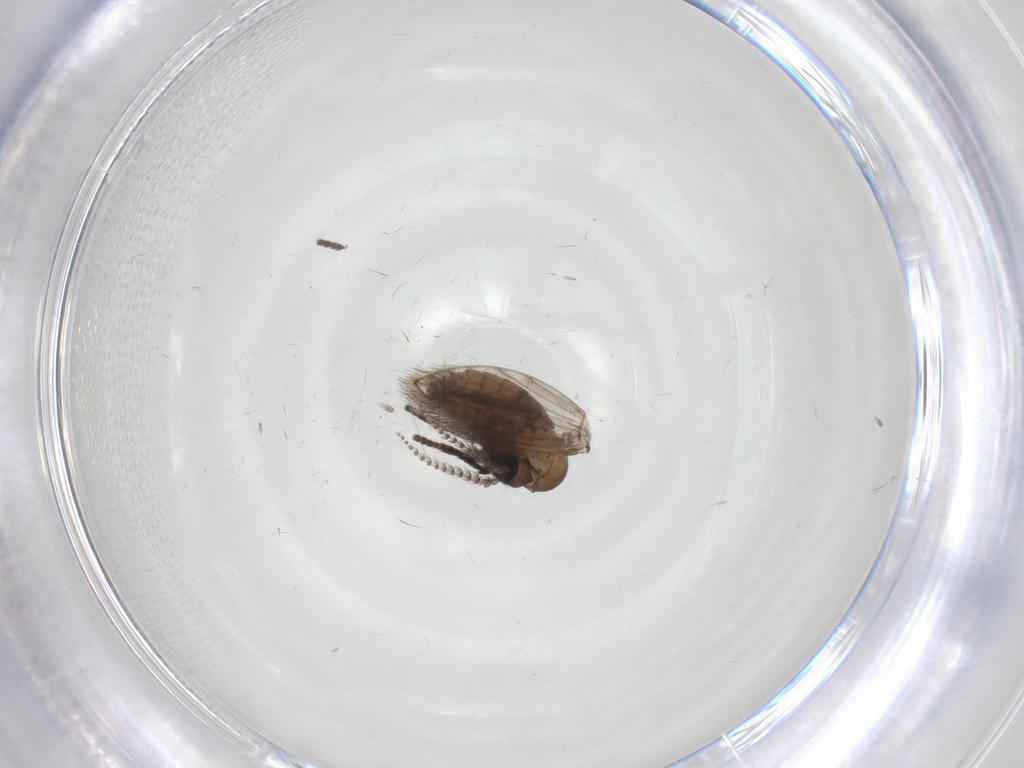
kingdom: Animalia
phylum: Arthropoda
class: Insecta
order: Diptera
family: Psychodidae
